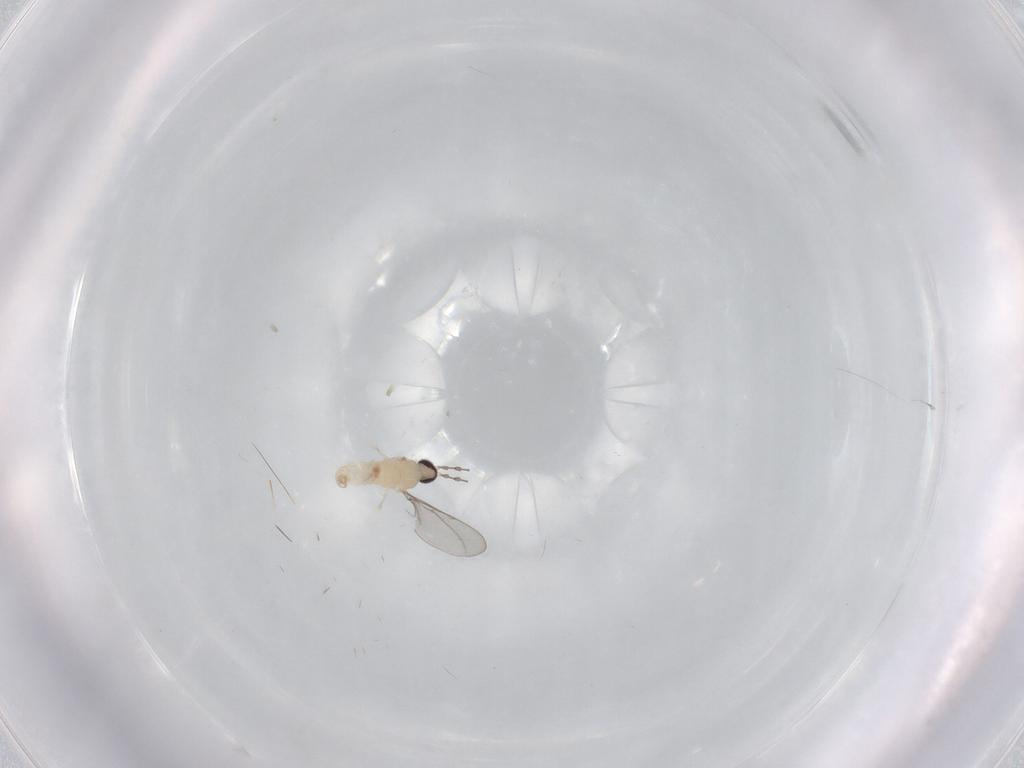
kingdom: Animalia
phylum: Arthropoda
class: Insecta
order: Diptera
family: Cecidomyiidae
